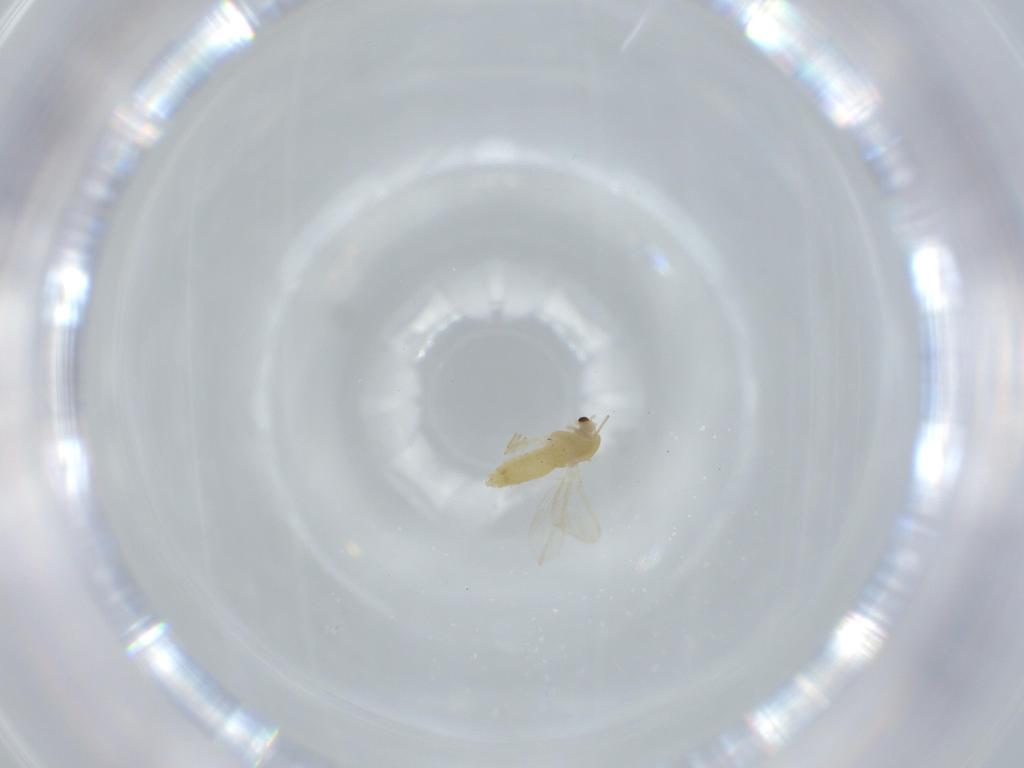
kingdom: Animalia
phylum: Arthropoda
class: Insecta
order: Diptera
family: Chironomidae
